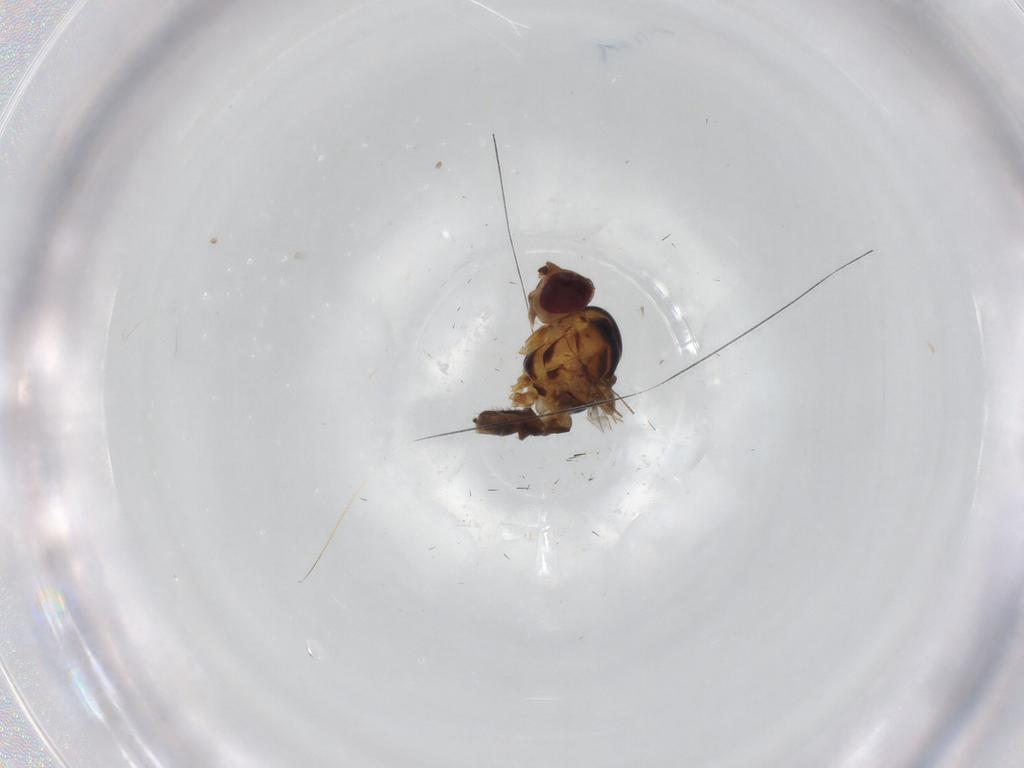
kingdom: Animalia
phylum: Arthropoda
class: Insecta
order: Diptera
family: Chloropidae
